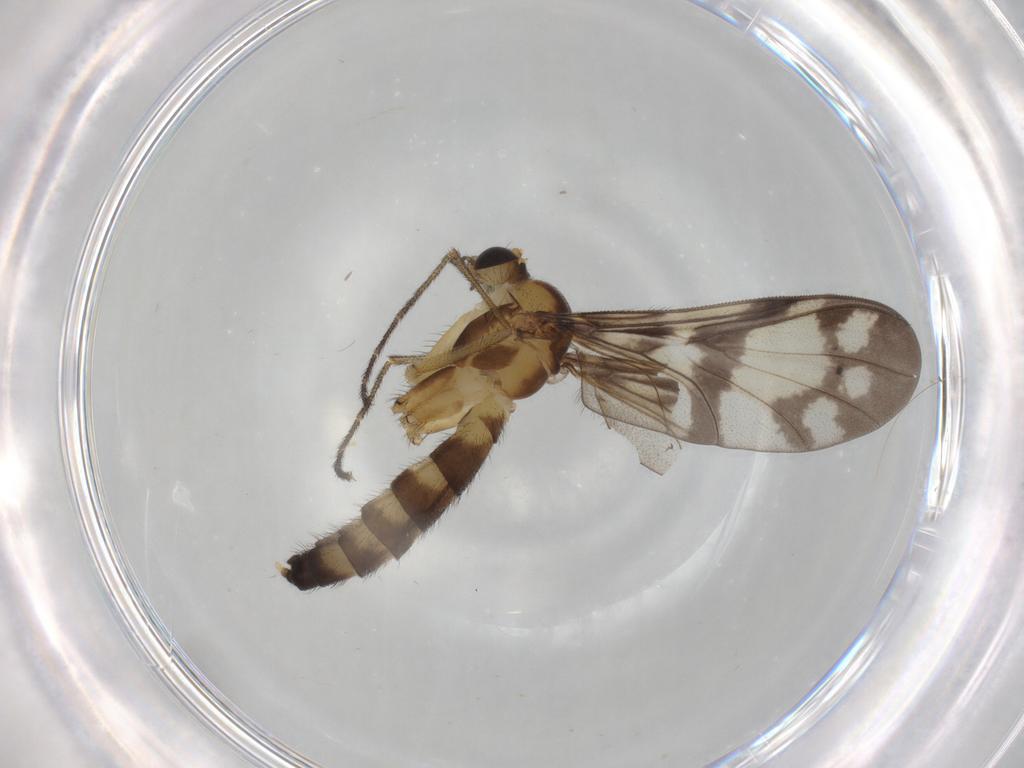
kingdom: Animalia
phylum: Arthropoda
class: Insecta
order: Diptera
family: Keroplatidae
